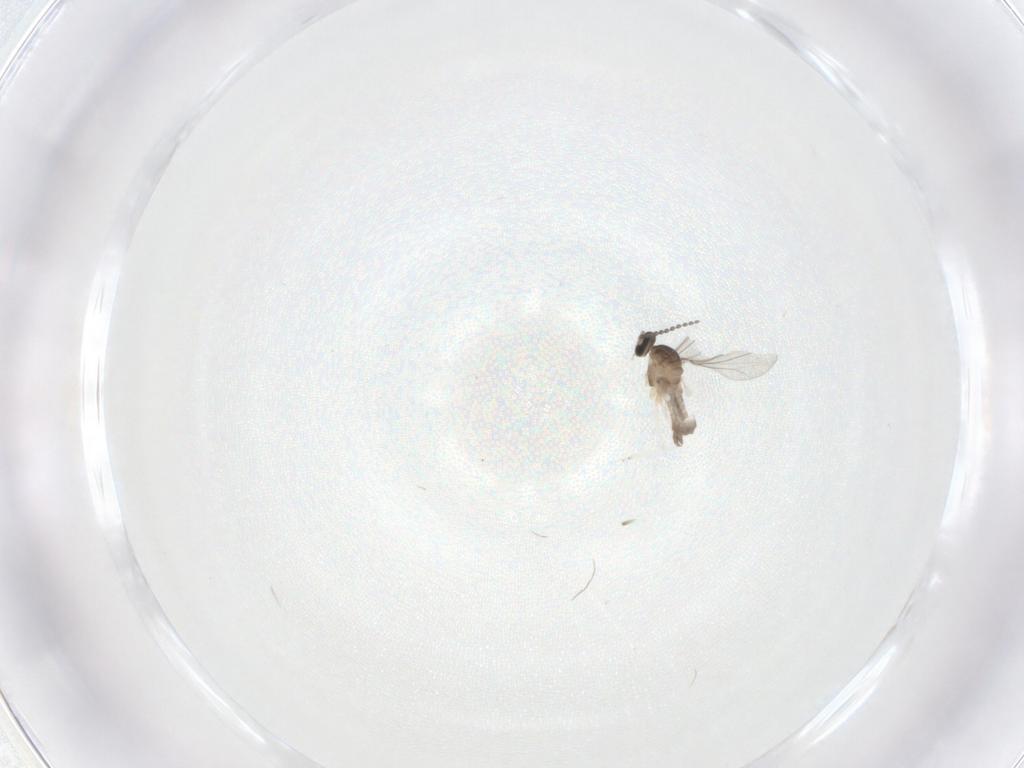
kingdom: Animalia
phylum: Arthropoda
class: Insecta
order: Diptera
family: Cecidomyiidae
